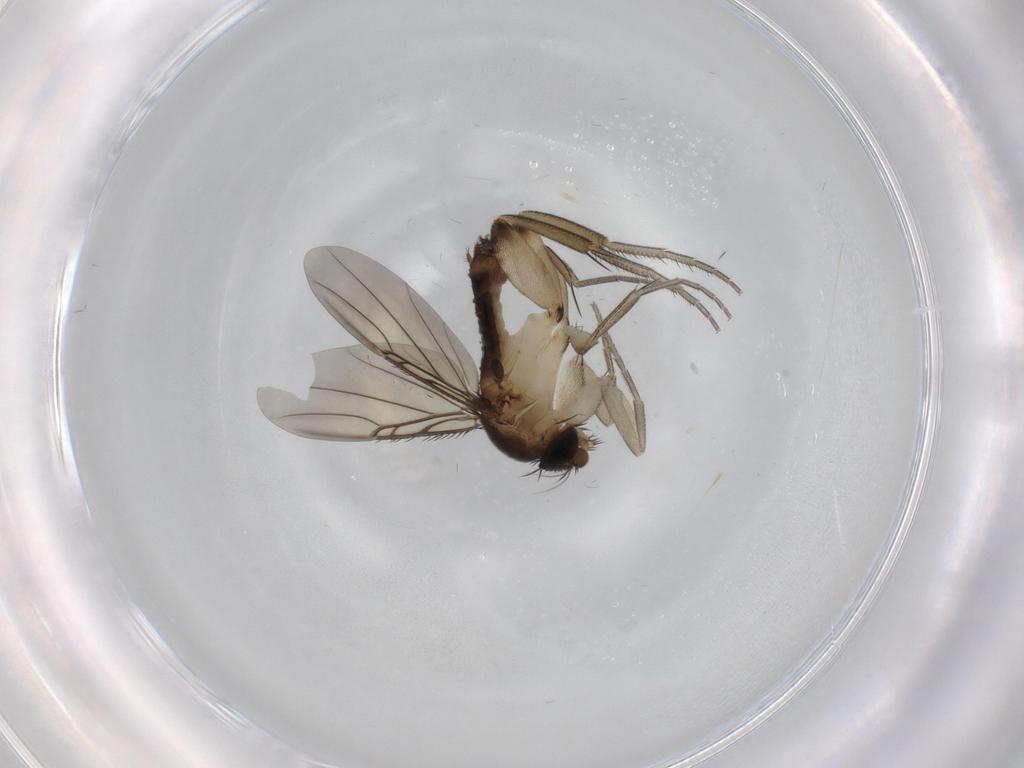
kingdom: Animalia
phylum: Arthropoda
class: Insecta
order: Diptera
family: Phoridae
